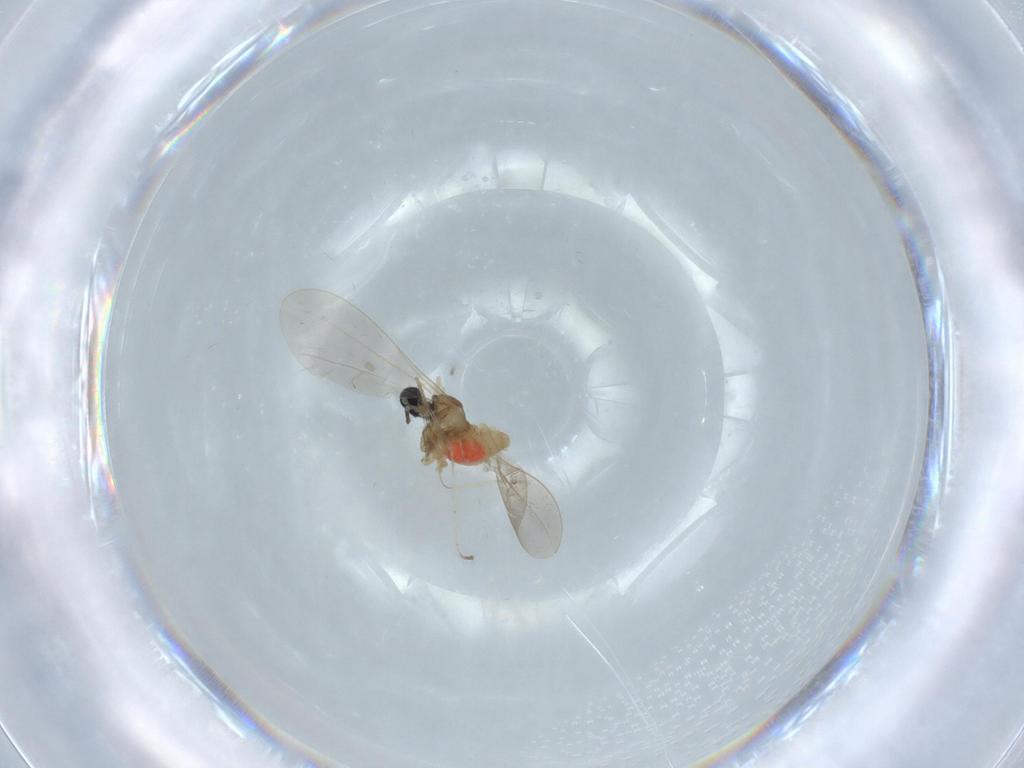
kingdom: Animalia
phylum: Arthropoda
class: Insecta
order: Diptera
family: Cecidomyiidae
